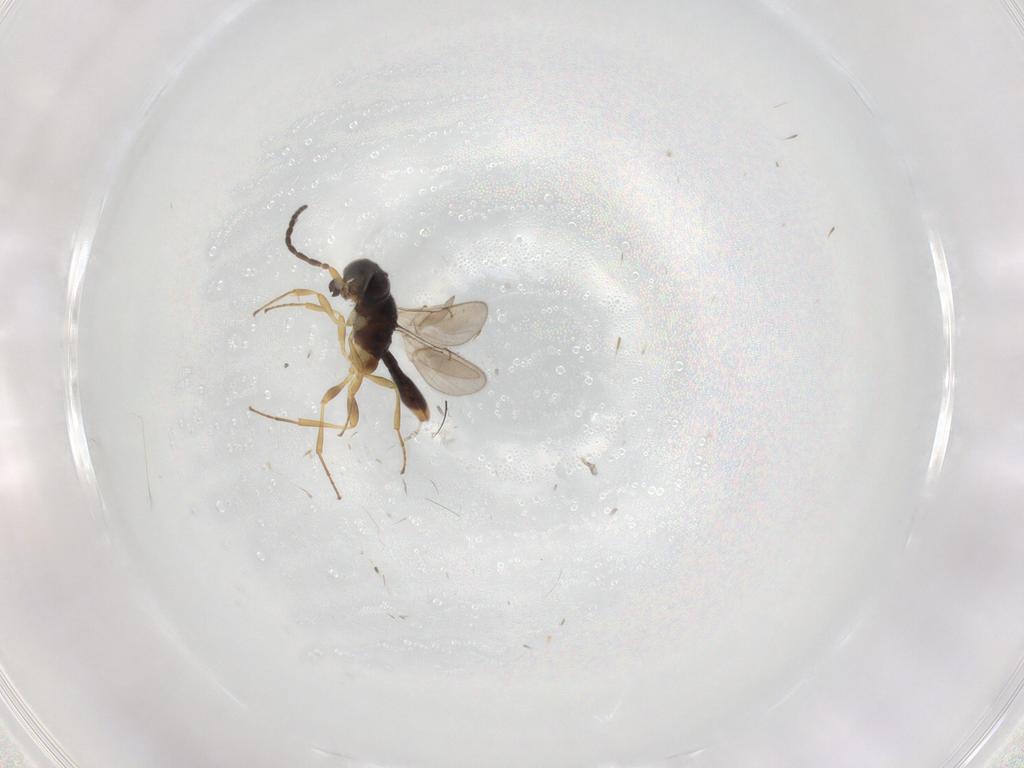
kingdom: Animalia
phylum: Arthropoda
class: Insecta
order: Hymenoptera
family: Scelionidae
